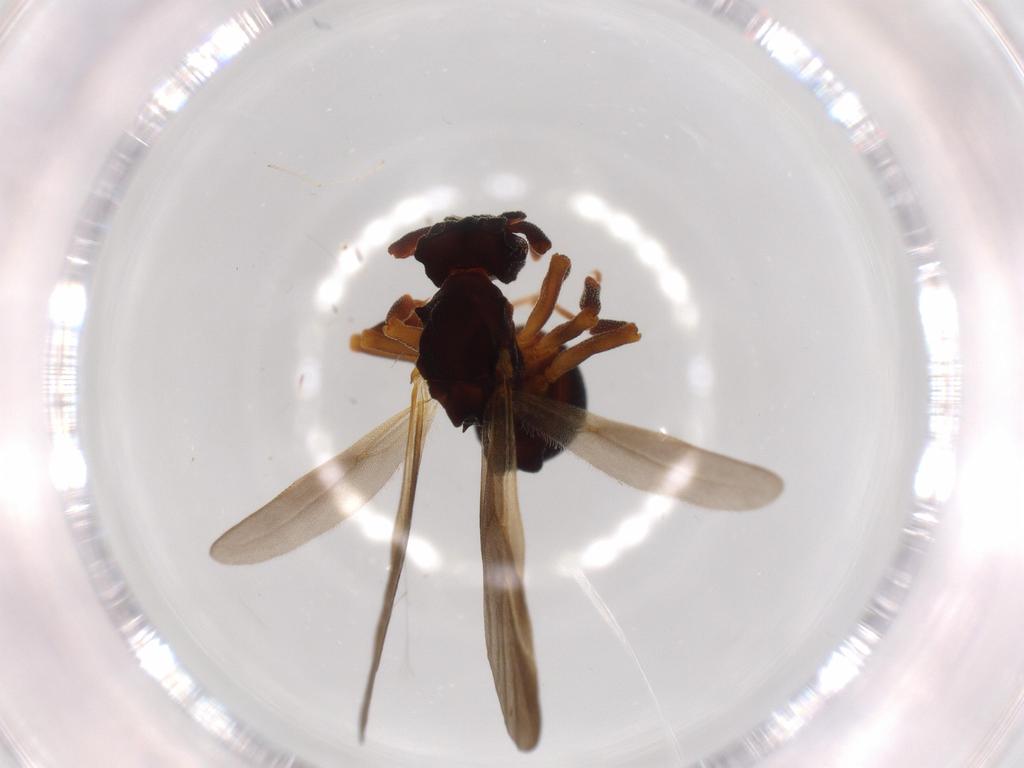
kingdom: Animalia
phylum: Arthropoda
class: Insecta
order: Hymenoptera
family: Formicidae
